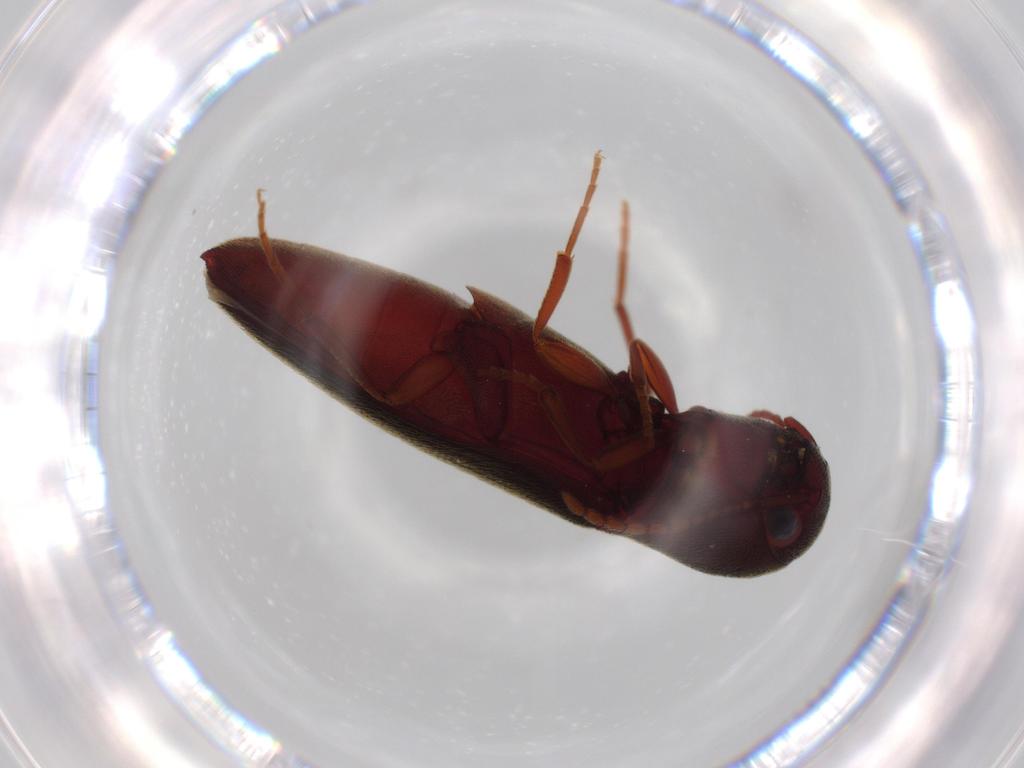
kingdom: Animalia
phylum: Arthropoda
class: Insecta
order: Coleoptera
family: Eucnemidae
